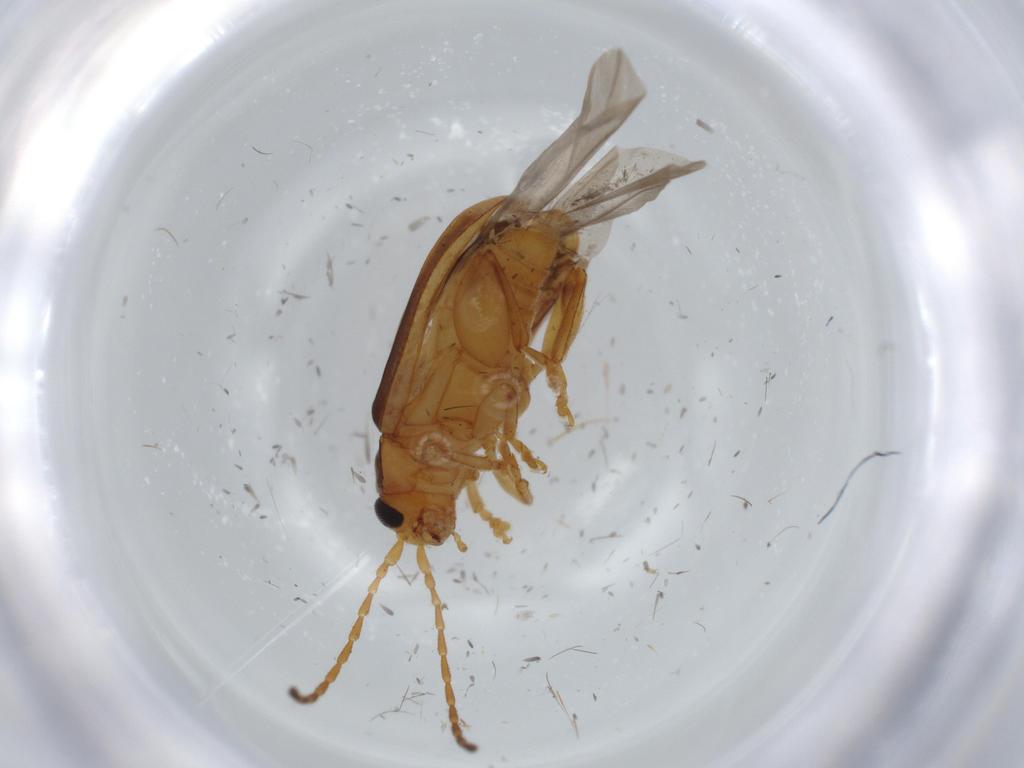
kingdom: Animalia
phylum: Arthropoda
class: Insecta
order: Coleoptera
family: Chrysomelidae
